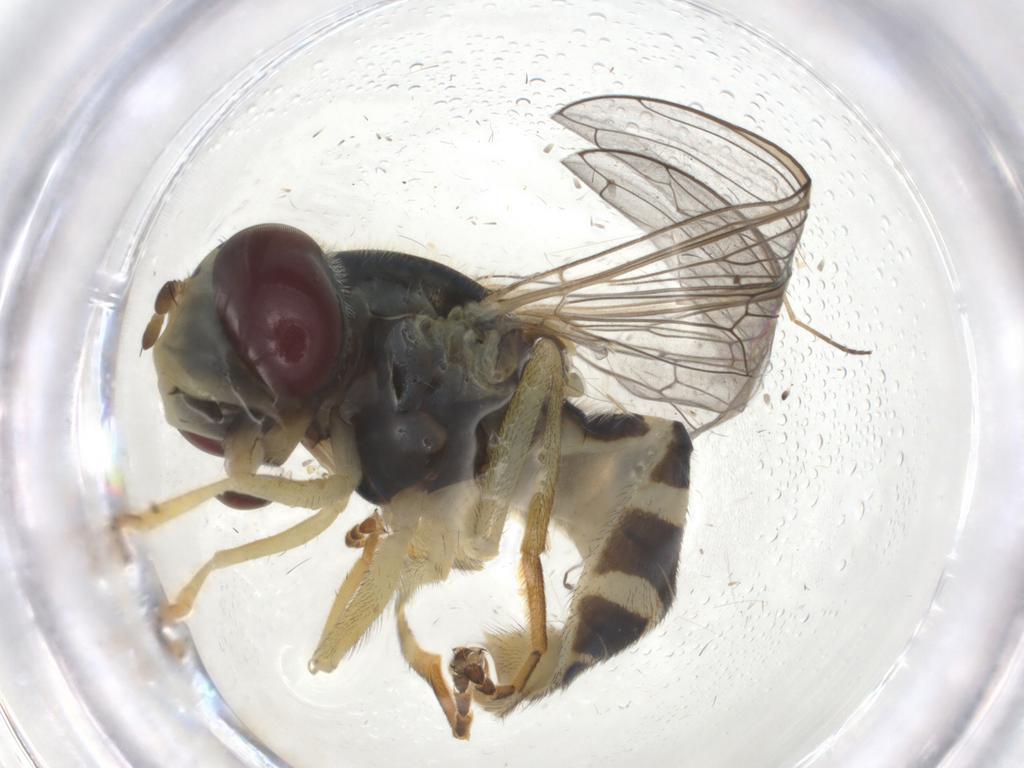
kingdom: Animalia
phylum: Arthropoda
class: Insecta
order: Diptera
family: Syrphidae
